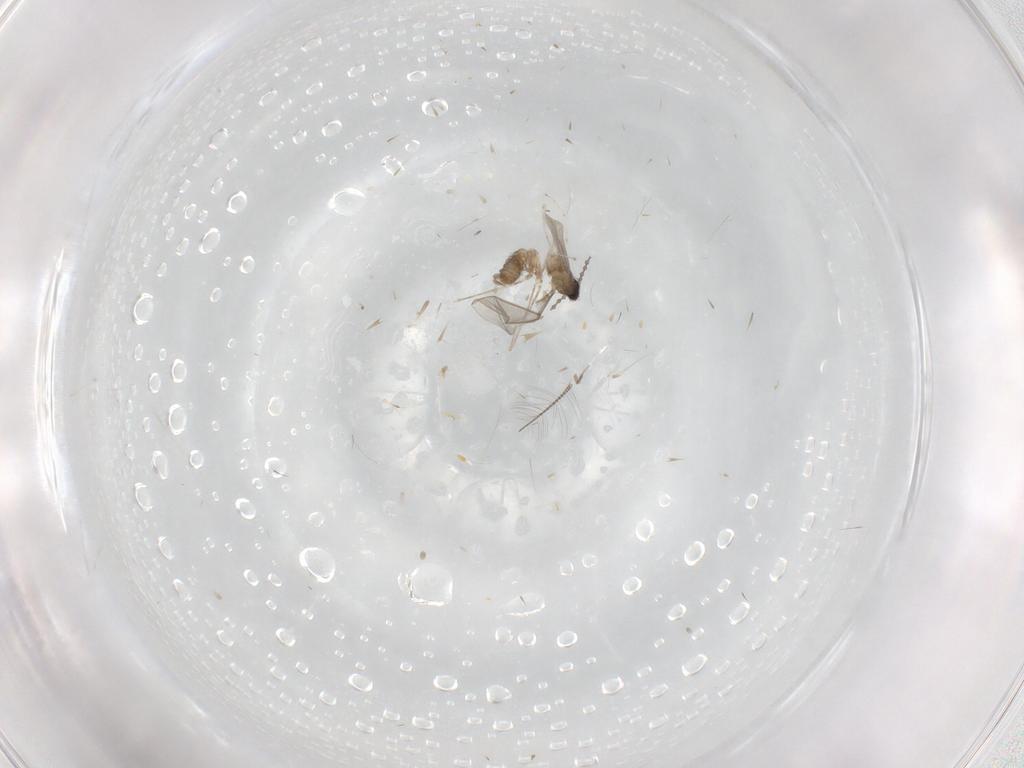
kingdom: Animalia
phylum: Arthropoda
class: Insecta
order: Diptera
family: Cecidomyiidae
